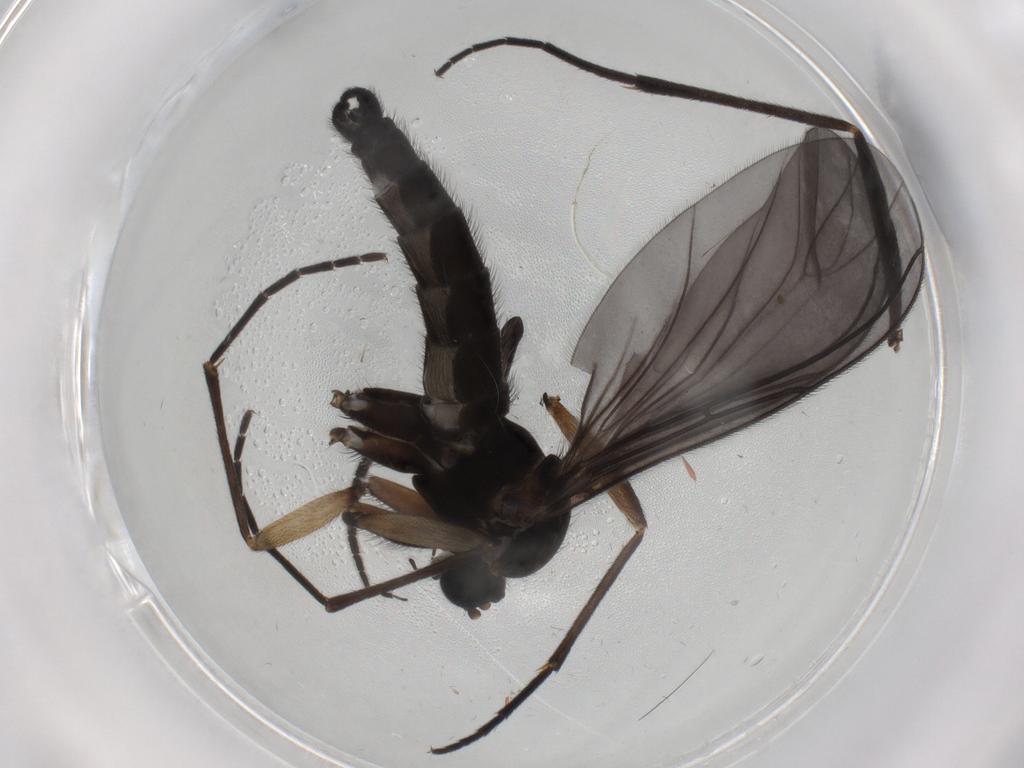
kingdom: Animalia
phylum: Arthropoda
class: Insecta
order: Diptera
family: Mycetophilidae
